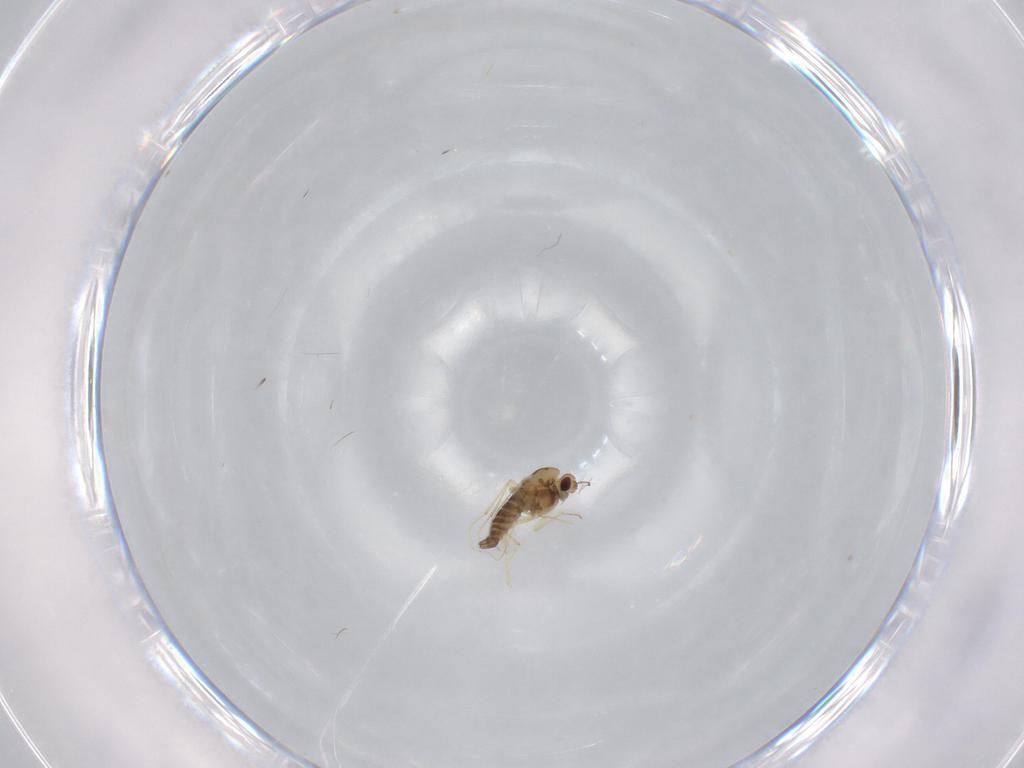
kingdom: Animalia
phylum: Arthropoda
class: Insecta
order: Diptera
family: Chironomidae
